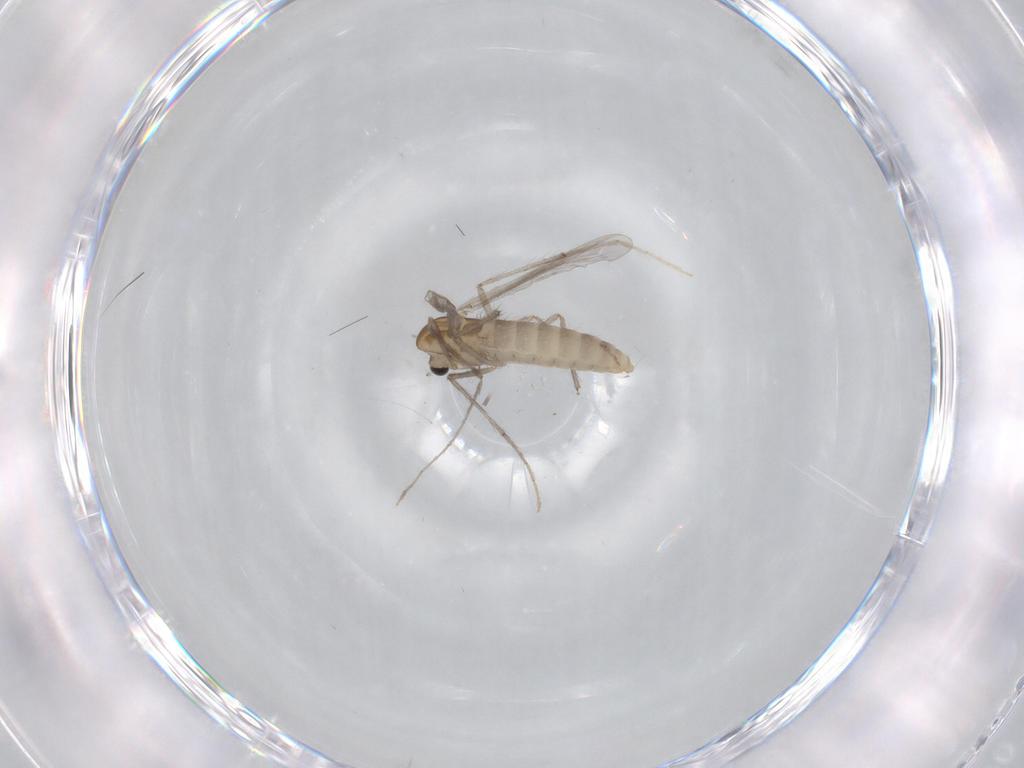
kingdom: Animalia
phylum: Arthropoda
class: Insecta
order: Diptera
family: Chironomidae
